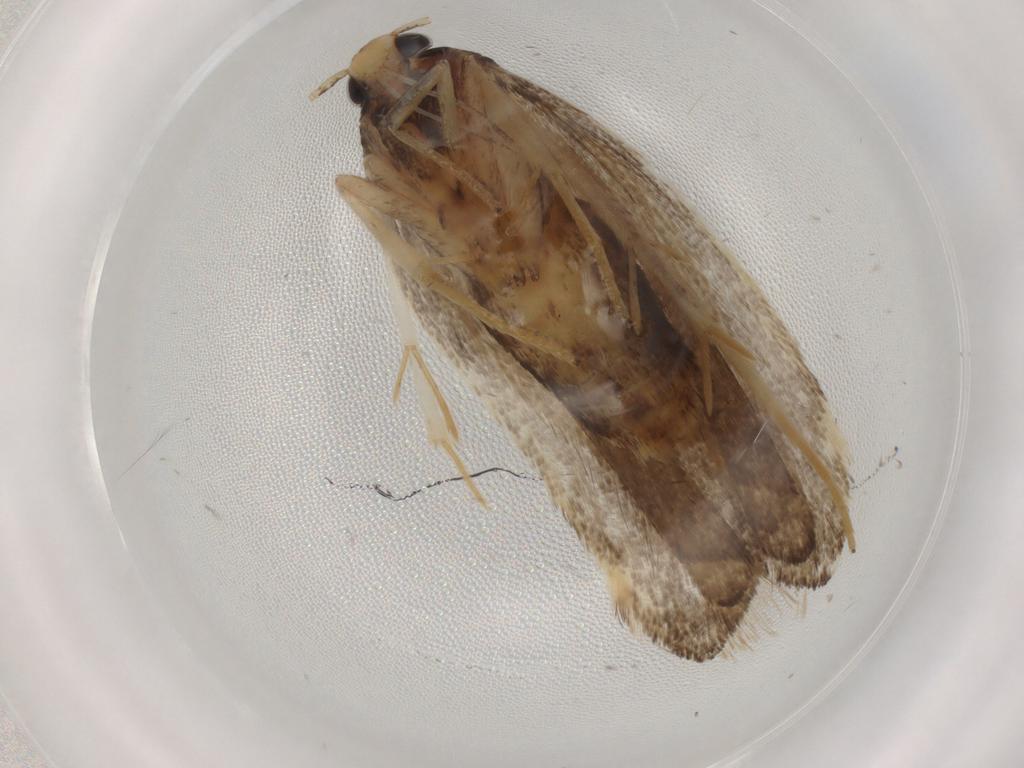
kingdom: Animalia
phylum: Arthropoda
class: Insecta
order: Lepidoptera
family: Lecithoceridae
